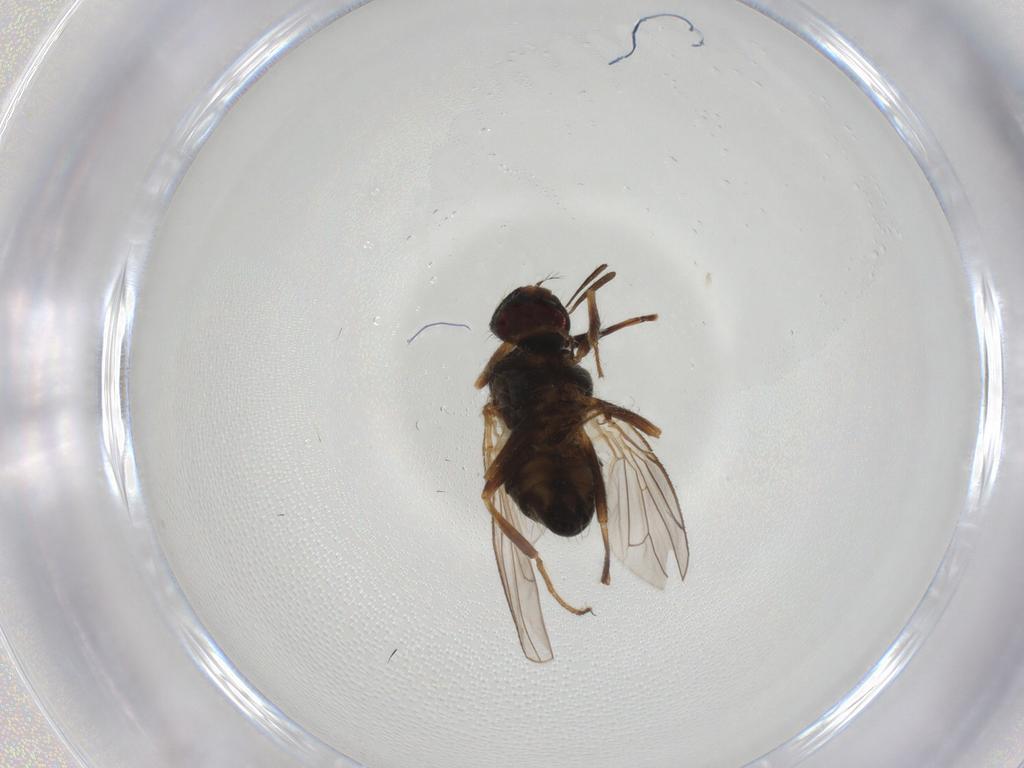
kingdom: Animalia
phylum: Arthropoda
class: Insecta
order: Diptera
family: Muscidae
